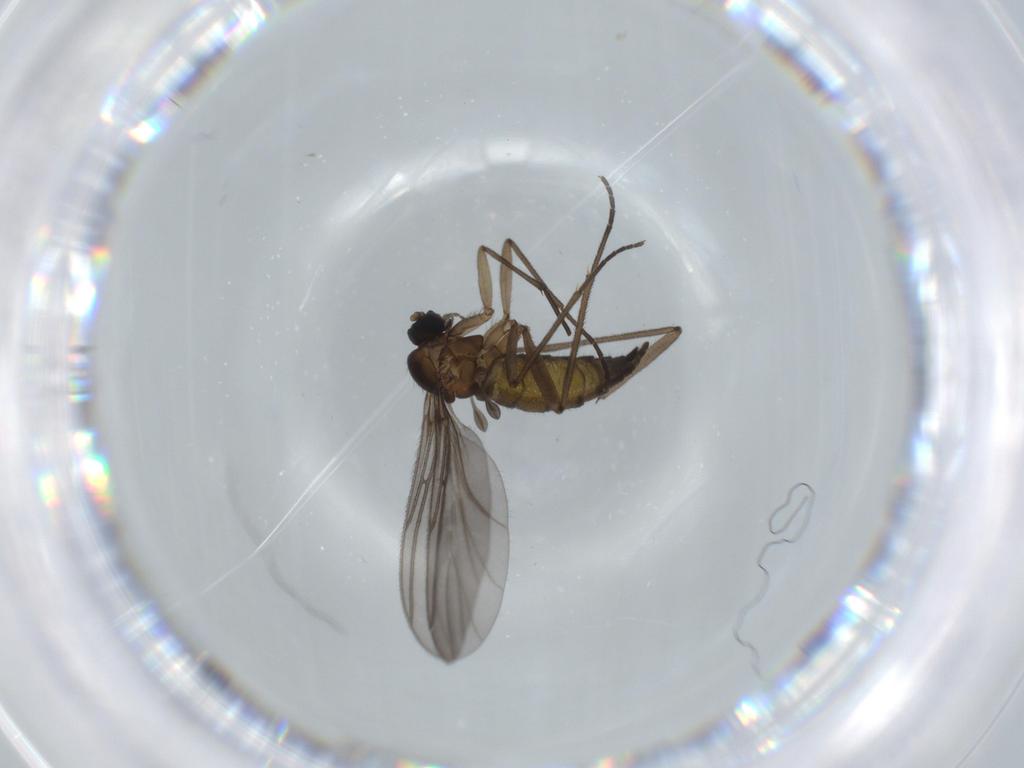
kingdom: Animalia
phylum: Arthropoda
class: Insecta
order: Diptera
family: Sciaridae
